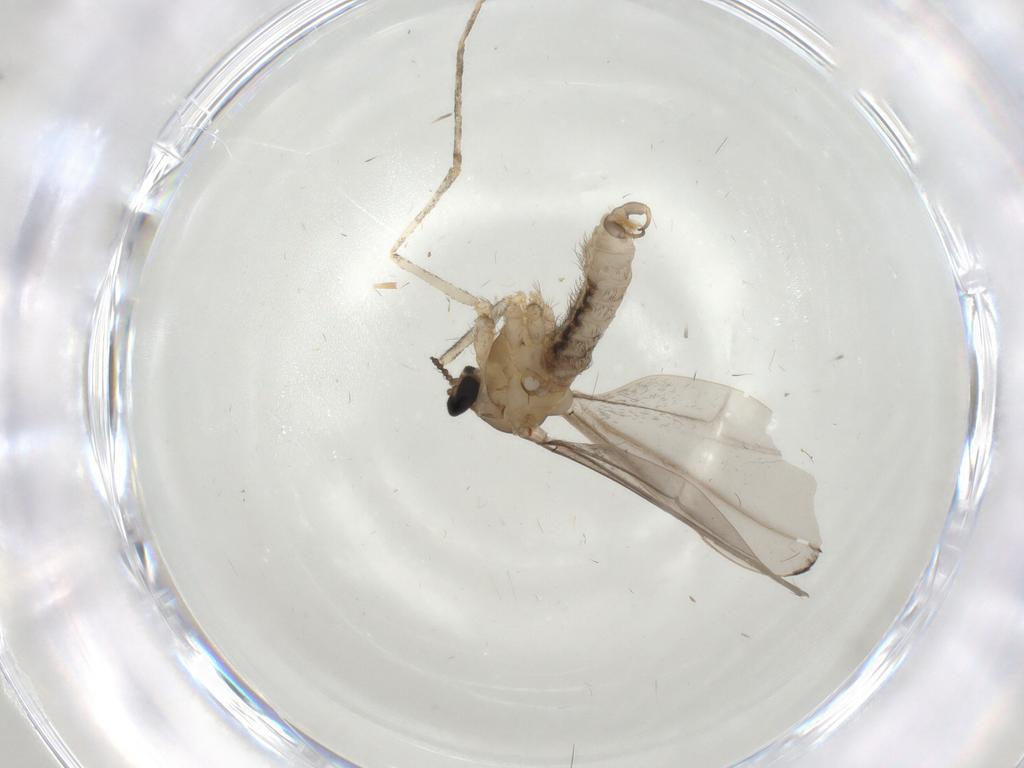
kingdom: Animalia
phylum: Arthropoda
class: Insecta
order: Diptera
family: Cecidomyiidae
